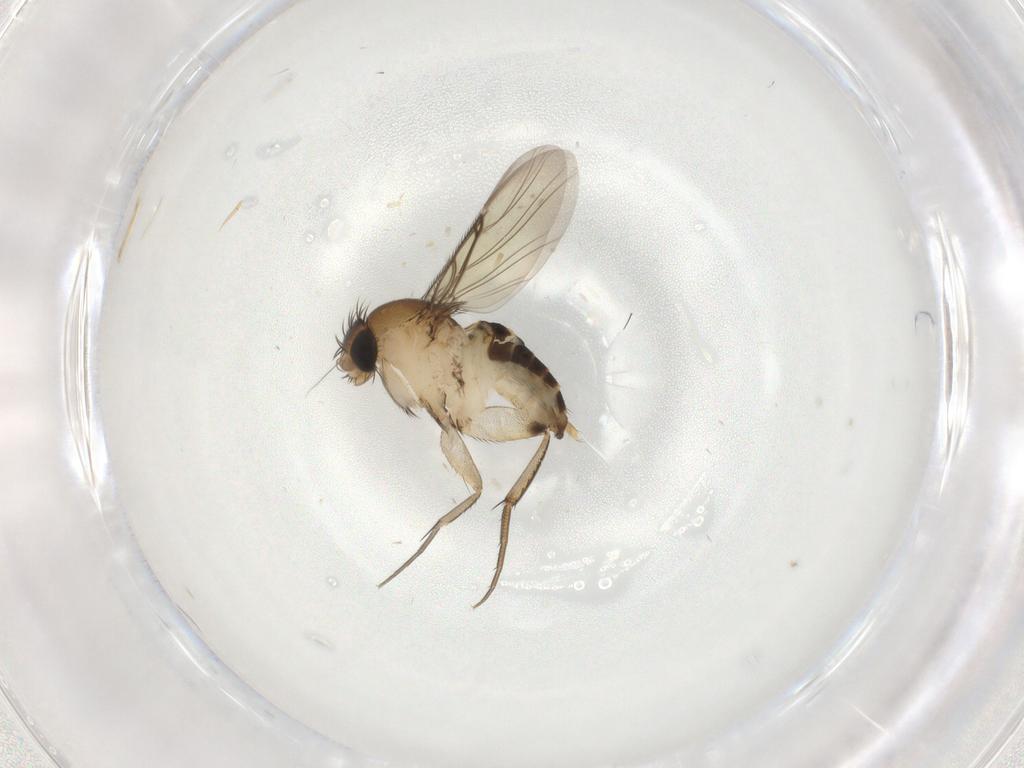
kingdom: Animalia
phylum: Arthropoda
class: Insecta
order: Diptera
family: Phoridae
